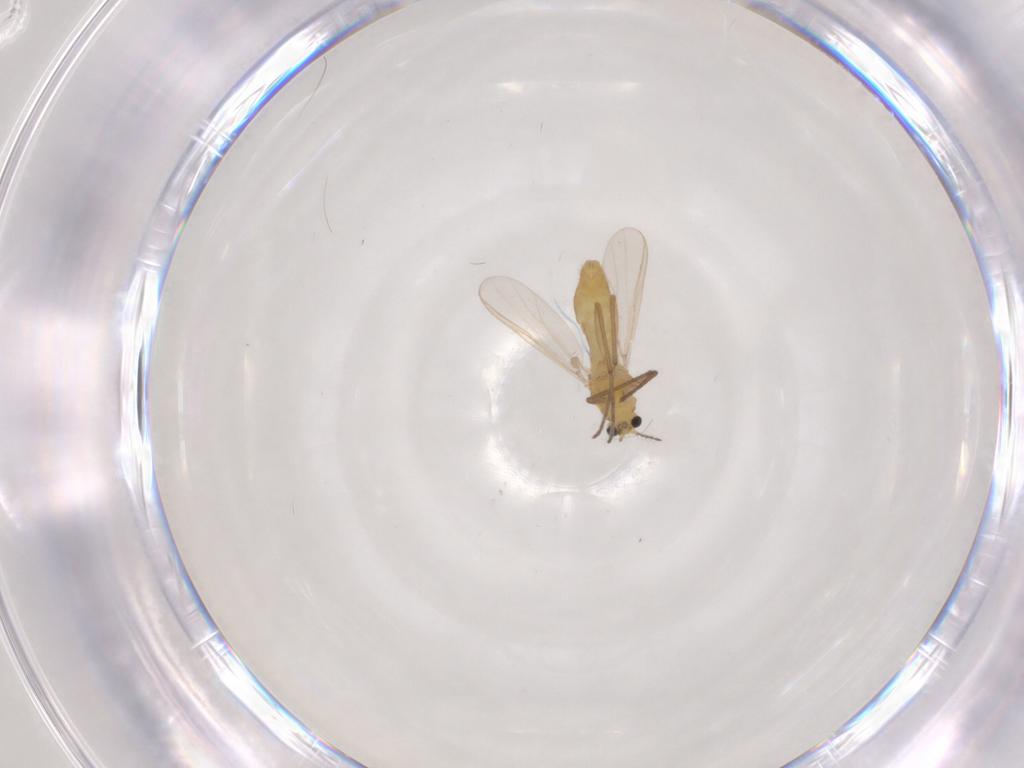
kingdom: Animalia
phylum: Arthropoda
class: Insecta
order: Diptera
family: Chironomidae
